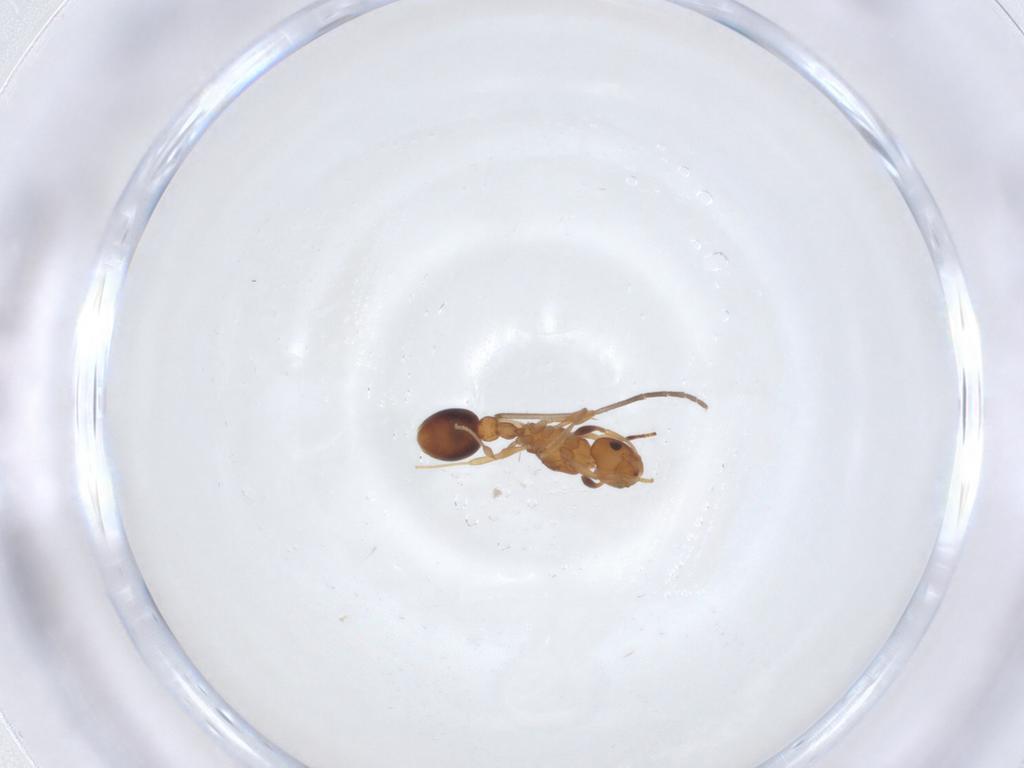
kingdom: Animalia
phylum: Arthropoda
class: Insecta
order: Hymenoptera
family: Formicidae
